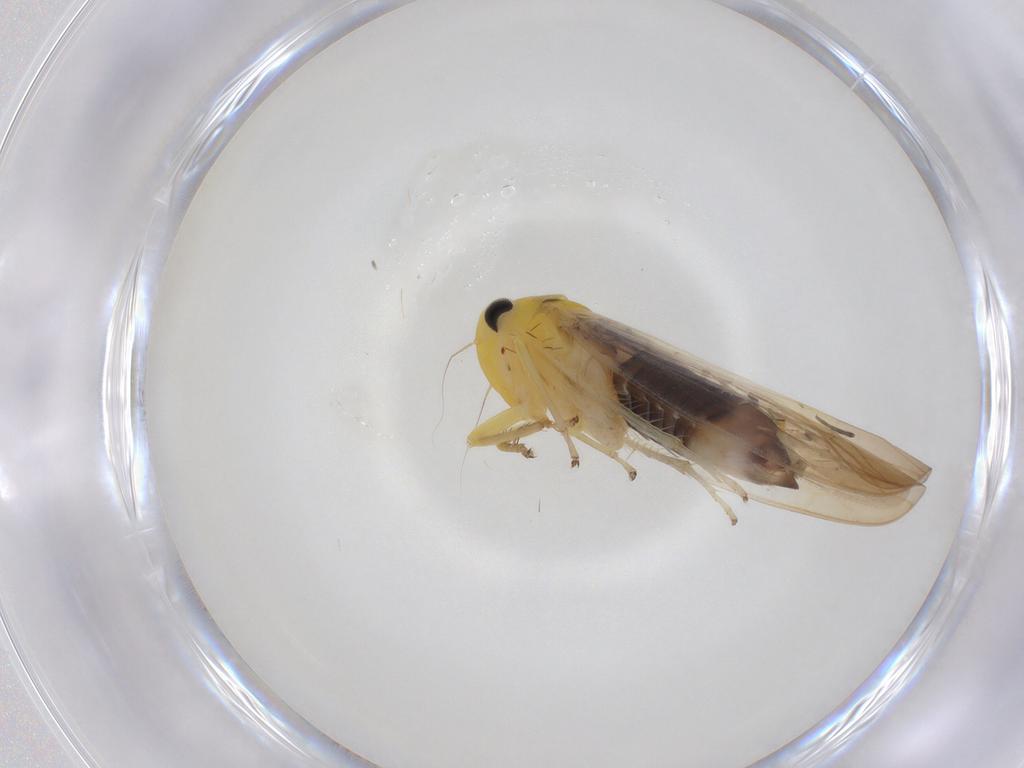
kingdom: Animalia
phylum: Arthropoda
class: Insecta
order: Hemiptera
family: Cicadellidae
